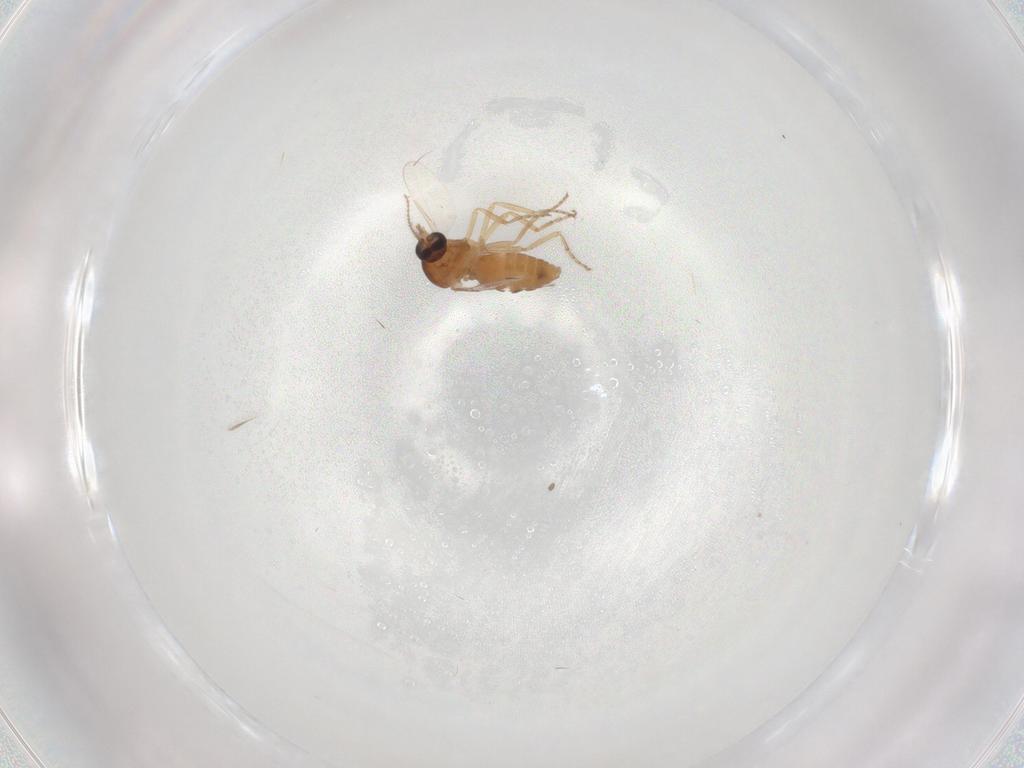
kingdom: Animalia
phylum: Arthropoda
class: Insecta
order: Diptera
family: Ceratopogonidae
